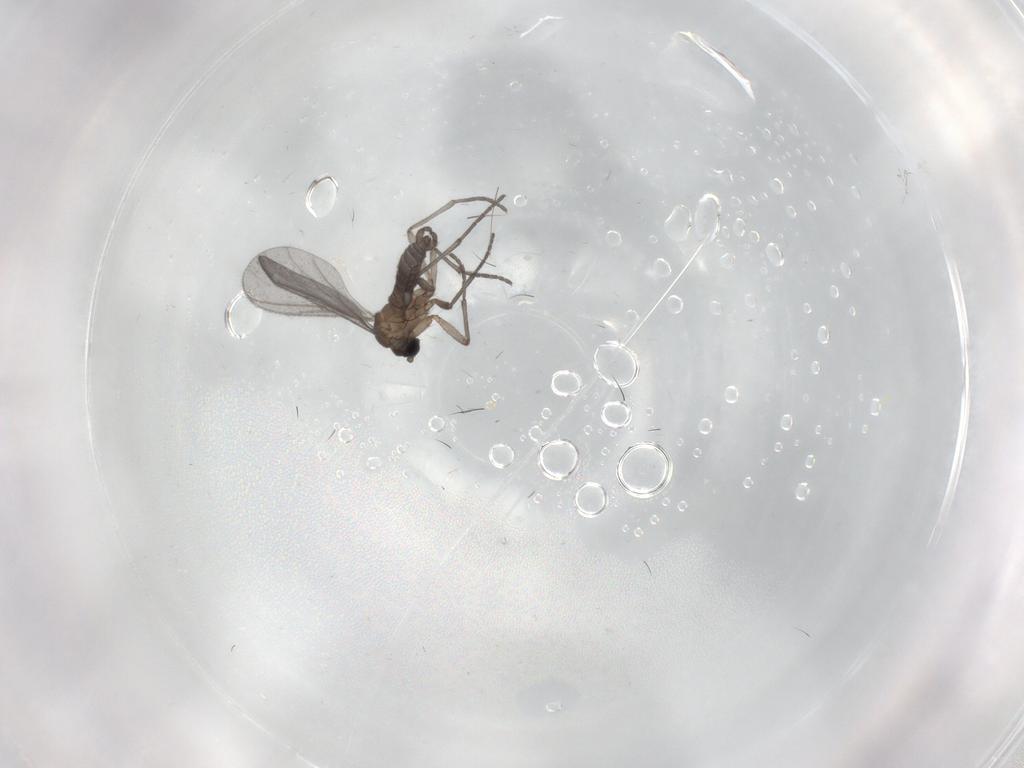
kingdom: Animalia
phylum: Arthropoda
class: Insecta
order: Diptera
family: Sciaridae
